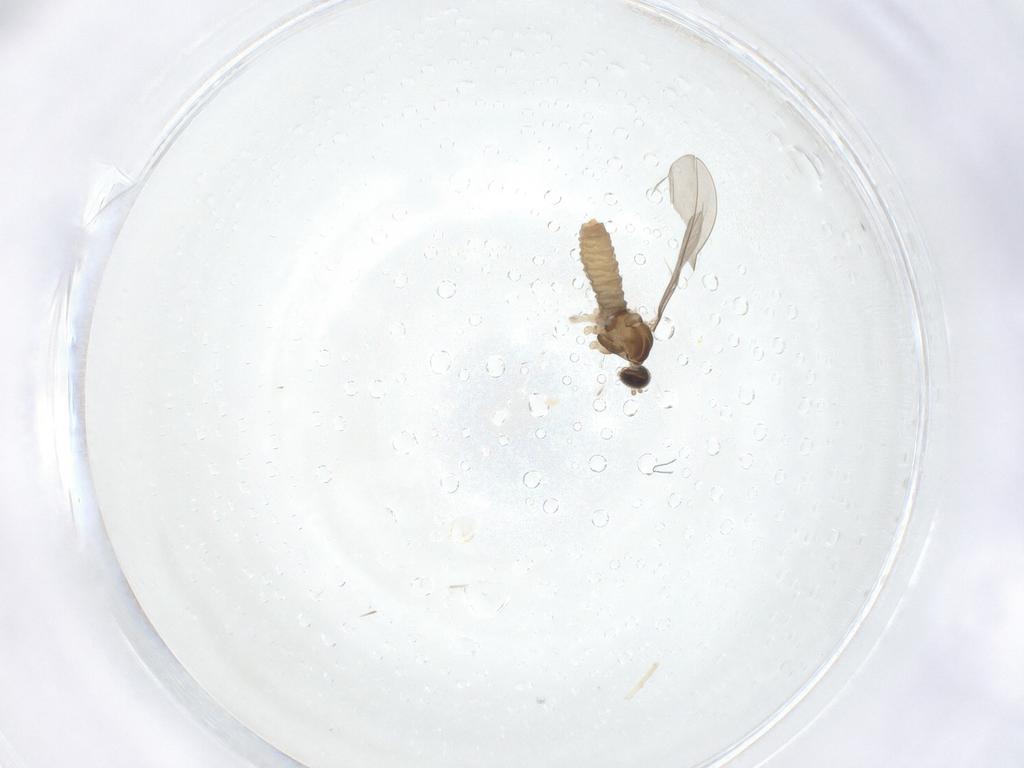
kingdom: Animalia
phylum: Arthropoda
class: Insecta
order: Diptera
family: Cecidomyiidae
